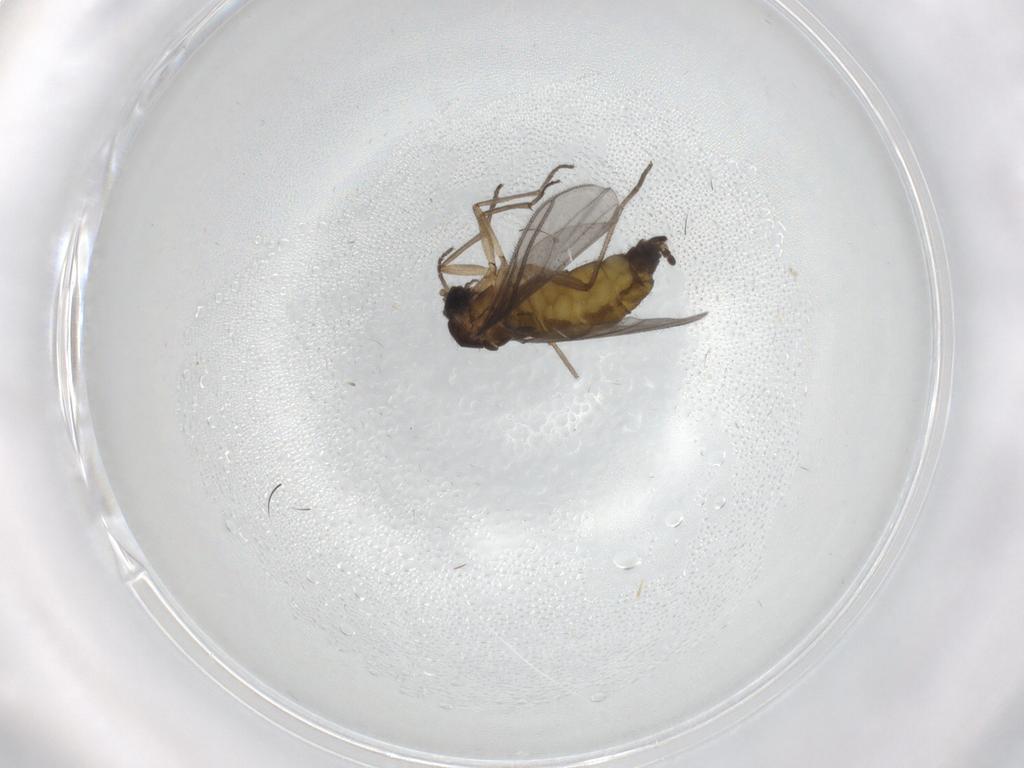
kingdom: Animalia
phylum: Arthropoda
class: Insecta
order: Diptera
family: Sciaridae
